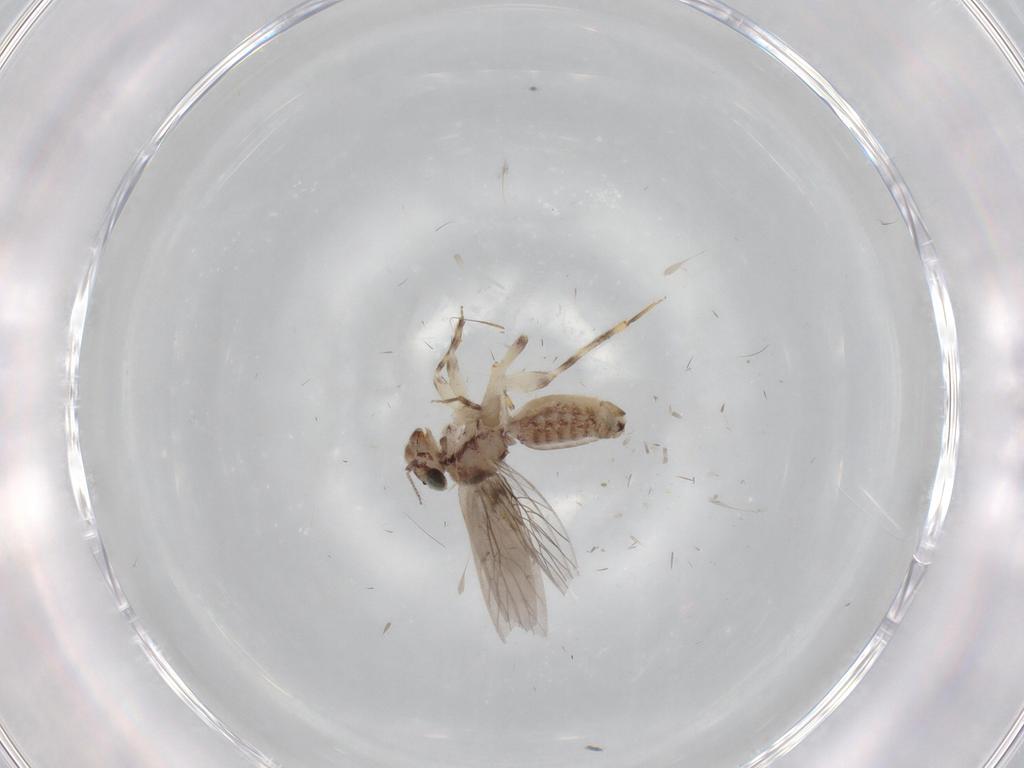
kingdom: Animalia
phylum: Arthropoda
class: Insecta
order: Psocodea
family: Lepidopsocidae
